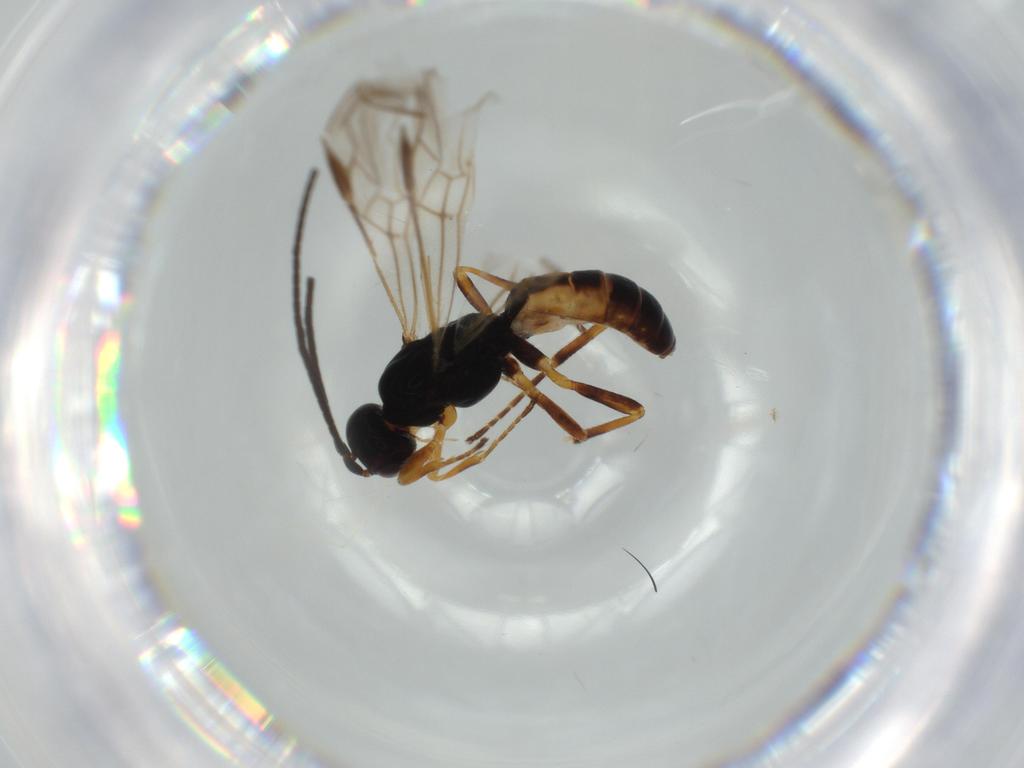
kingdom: Animalia
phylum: Arthropoda
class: Insecta
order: Hymenoptera
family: Braconidae
